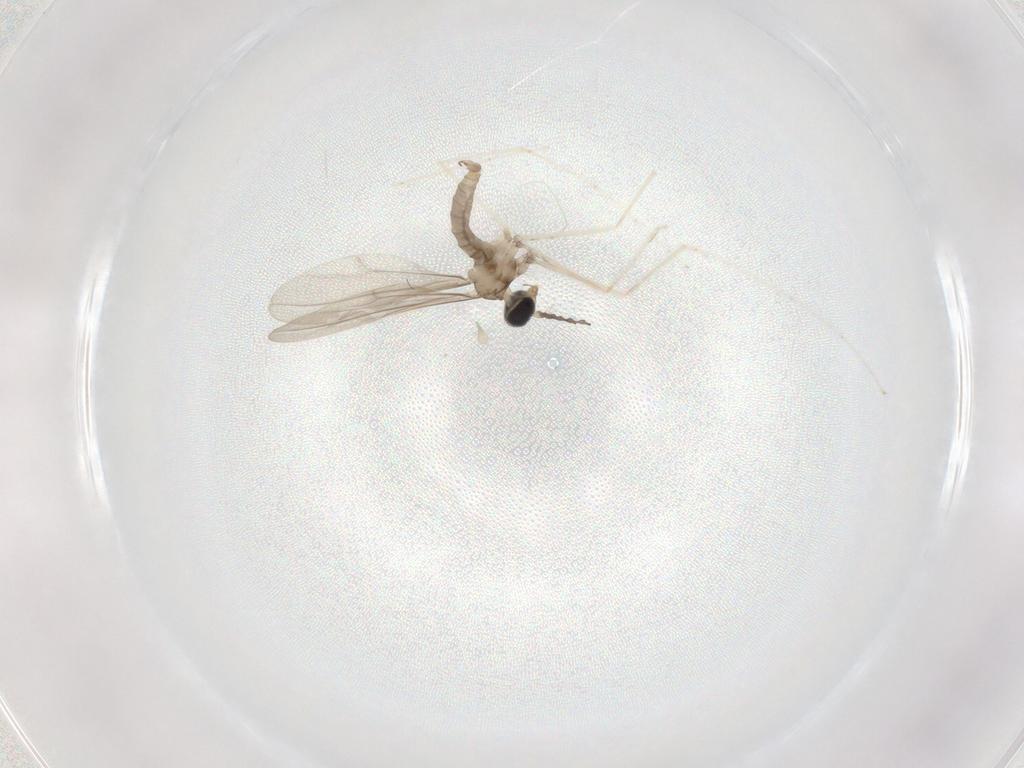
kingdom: Animalia
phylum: Arthropoda
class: Insecta
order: Diptera
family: Cecidomyiidae
